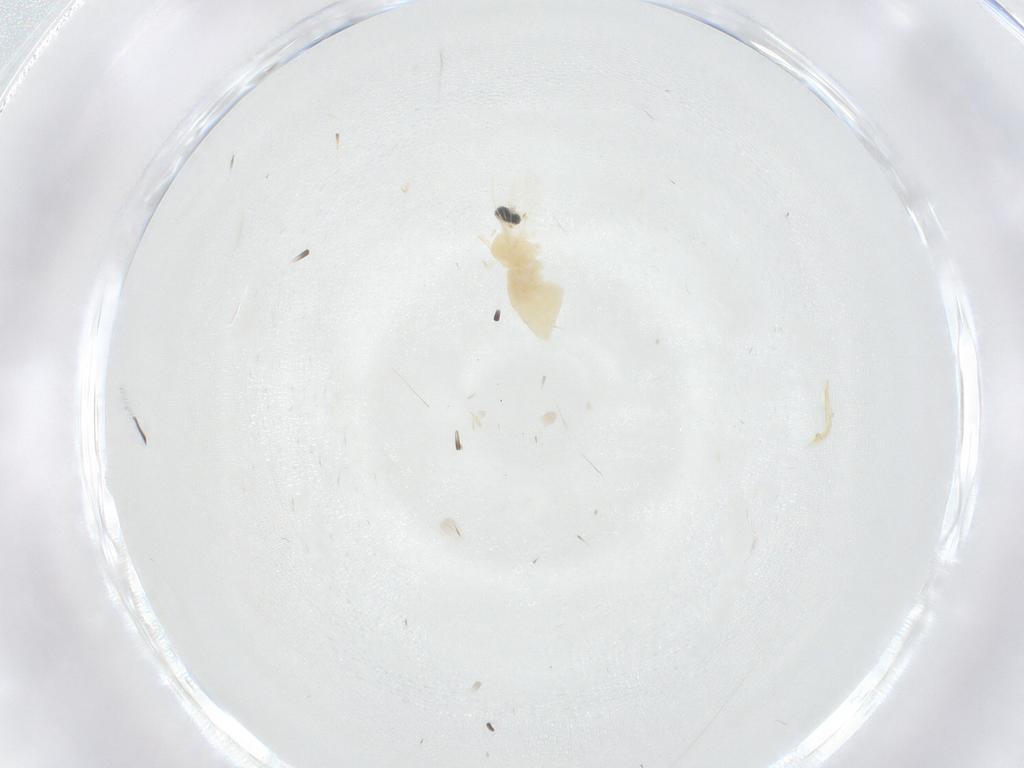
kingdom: Animalia
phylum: Arthropoda
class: Insecta
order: Diptera
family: Cecidomyiidae
